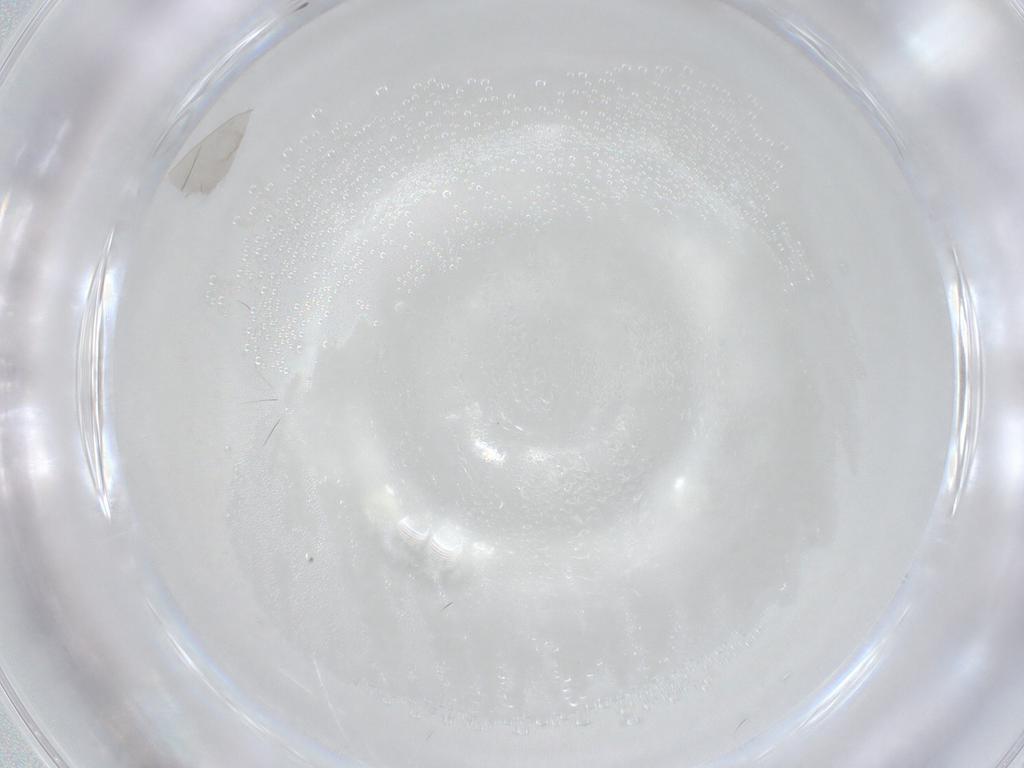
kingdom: Animalia
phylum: Arthropoda
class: Insecta
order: Diptera
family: Cecidomyiidae
